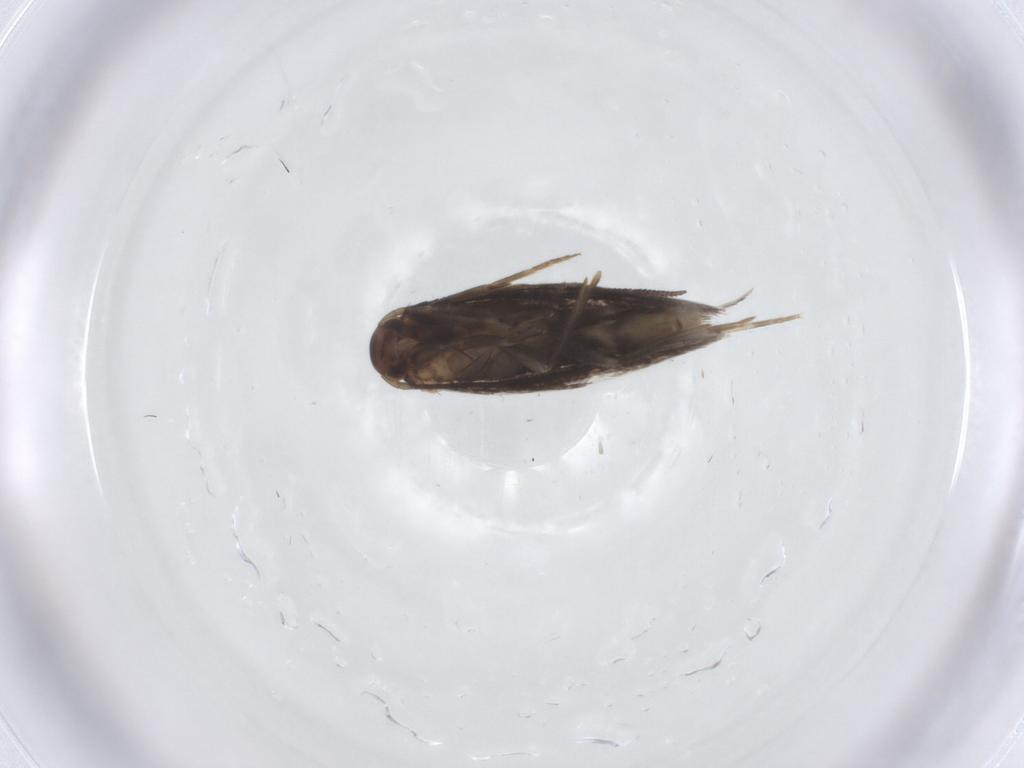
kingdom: Animalia
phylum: Arthropoda
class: Insecta
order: Lepidoptera
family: Elachistidae
